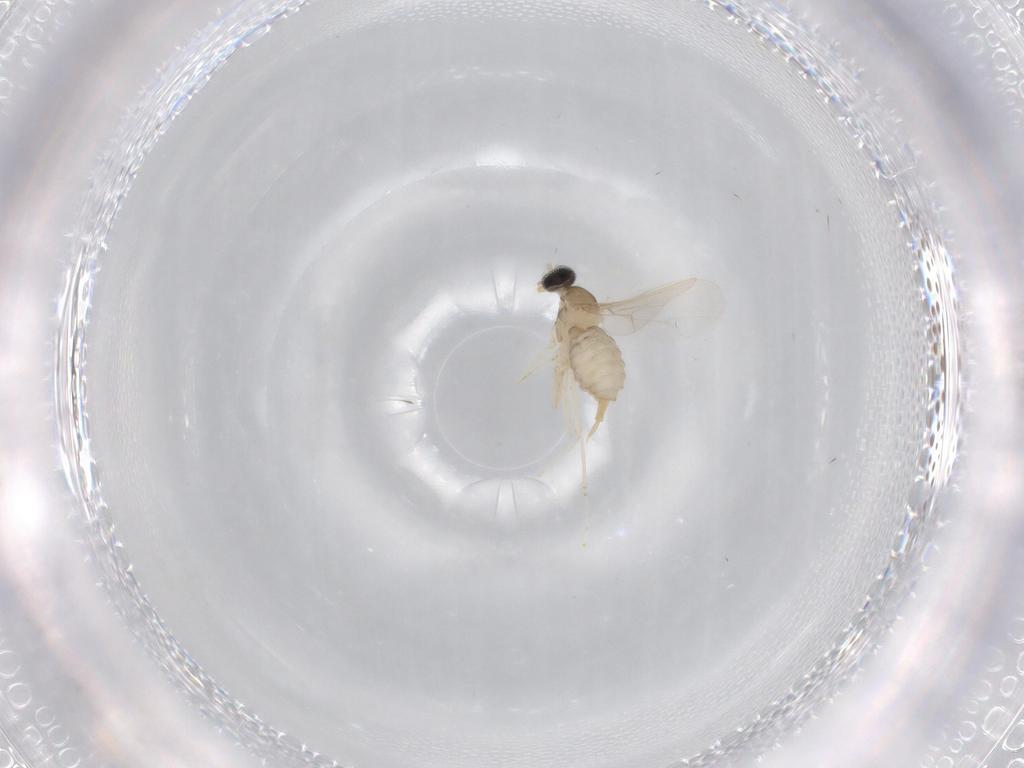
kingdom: Animalia
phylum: Arthropoda
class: Insecta
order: Diptera
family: Cecidomyiidae
